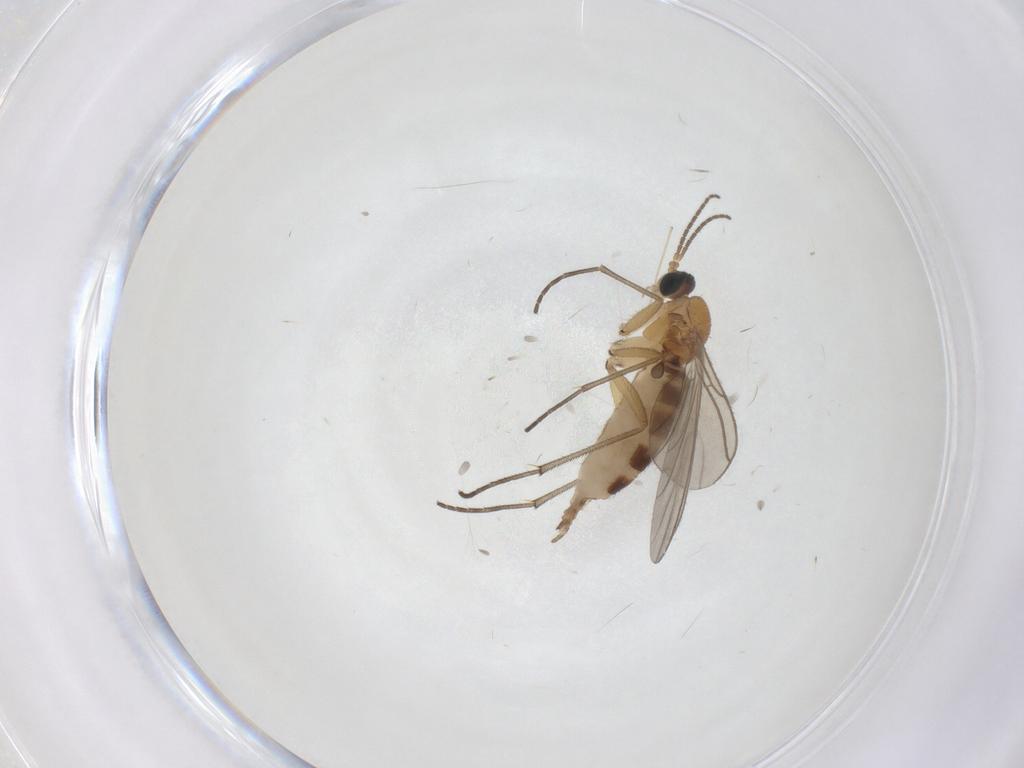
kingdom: Animalia
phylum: Arthropoda
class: Insecta
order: Diptera
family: Sciaridae
